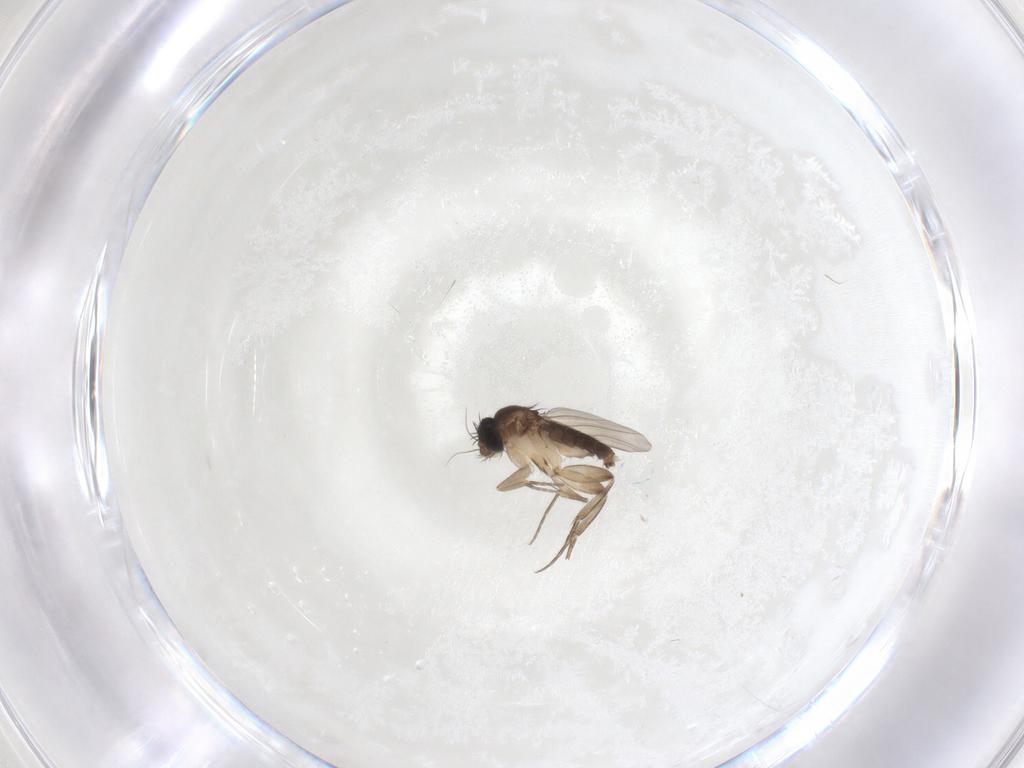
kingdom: Animalia
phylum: Arthropoda
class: Insecta
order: Diptera
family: Phoridae
